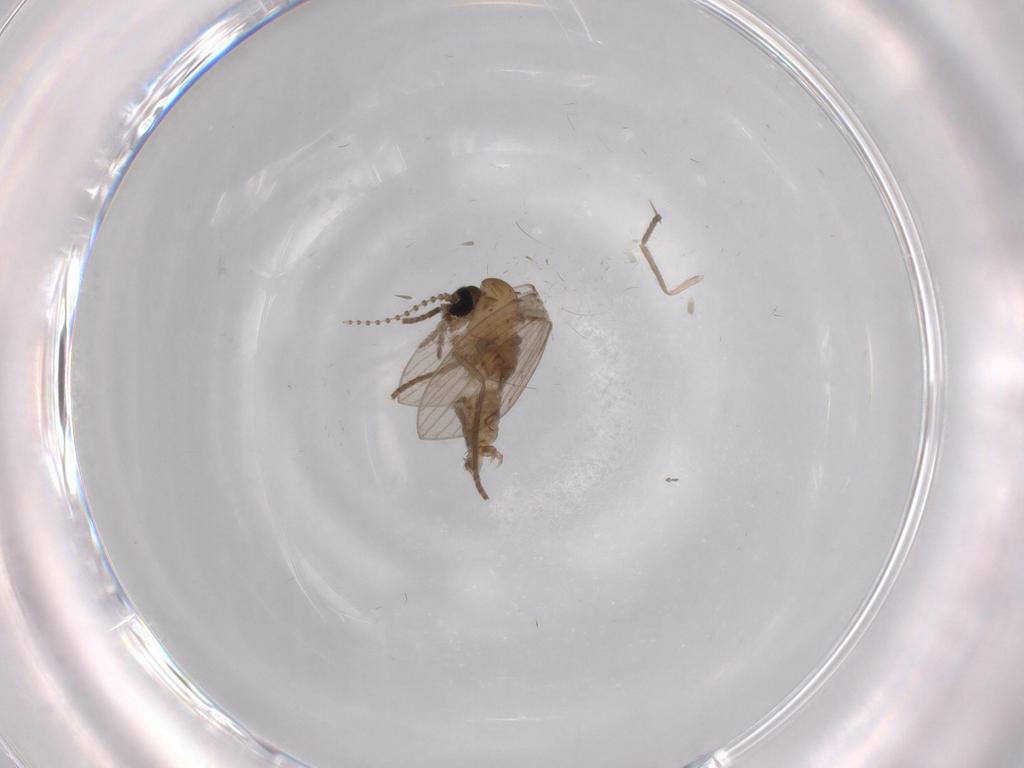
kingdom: Animalia
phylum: Arthropoda
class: Insecta
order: Diptera
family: Psychodidae
